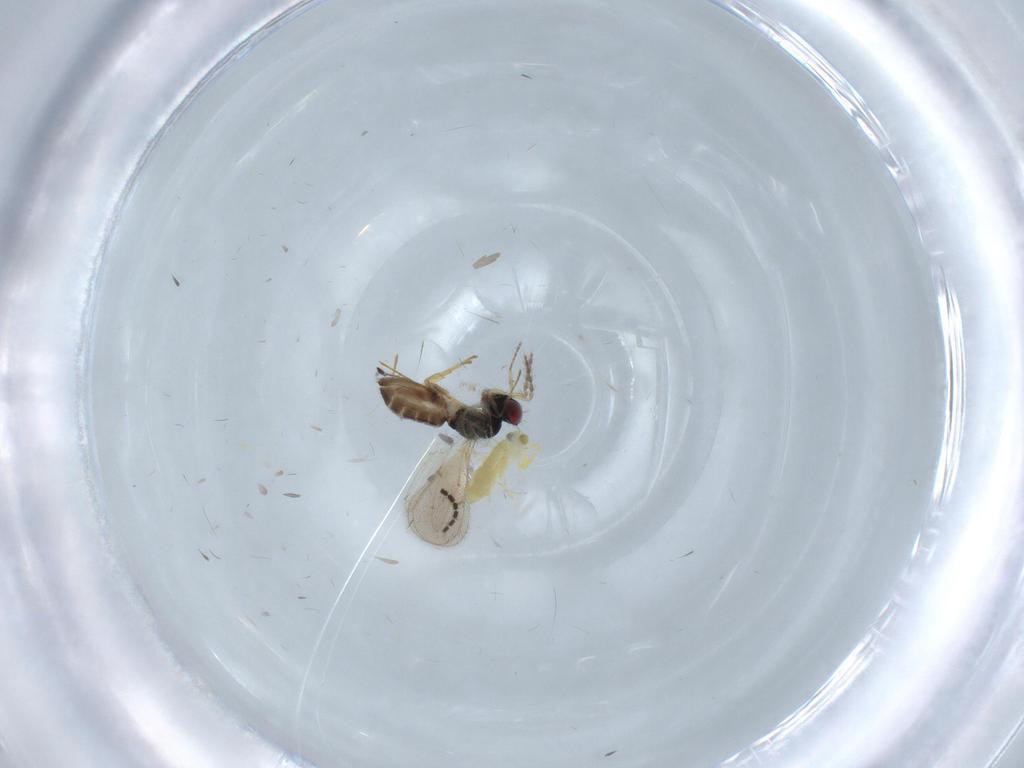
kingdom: Animalia
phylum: Arthropoda
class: Insecta
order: Hymenoptera
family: Eulophidae
